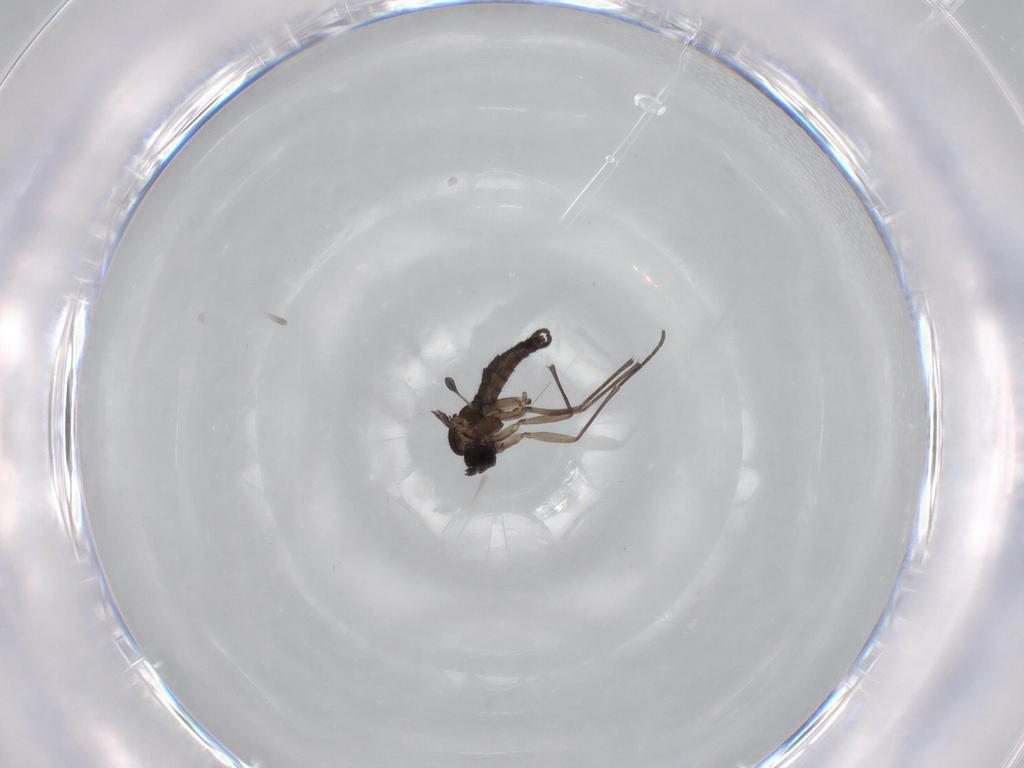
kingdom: Animalia
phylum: Arthropoda
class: Insecta
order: Diptera
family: Sciaridae
